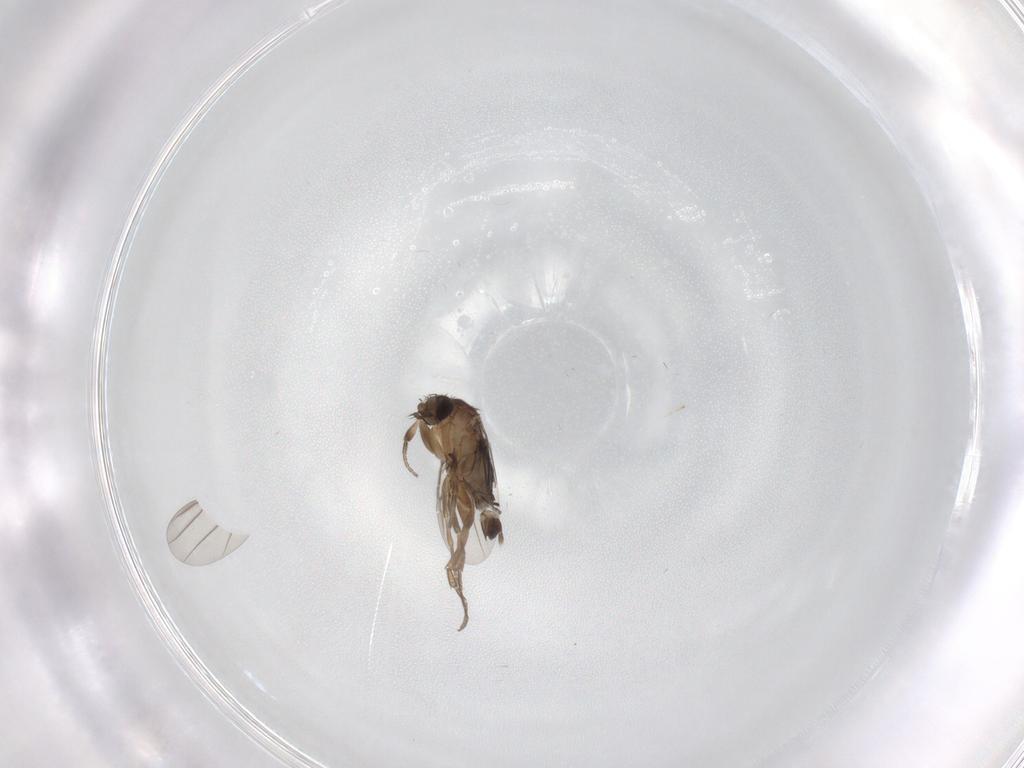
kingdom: Animalia
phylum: Arthropoda
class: Insecta
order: Diptera
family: Phoridae
